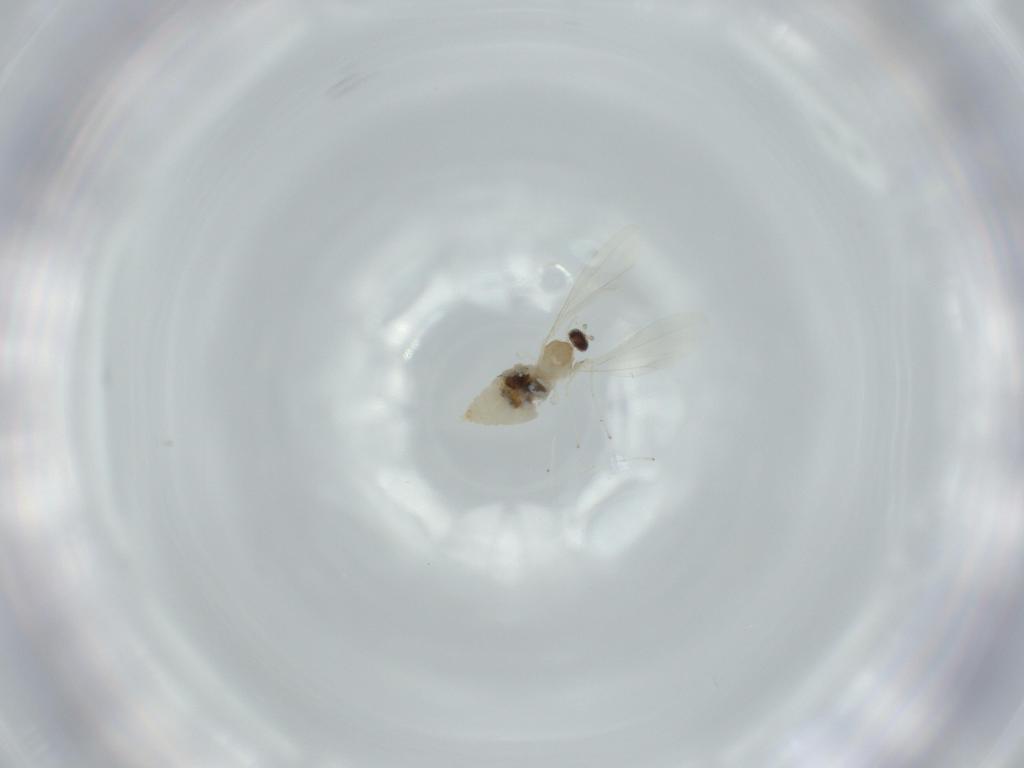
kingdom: Animalia
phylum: Arthropoda
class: Insecta
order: Diptera
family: Cecidomyiidae
